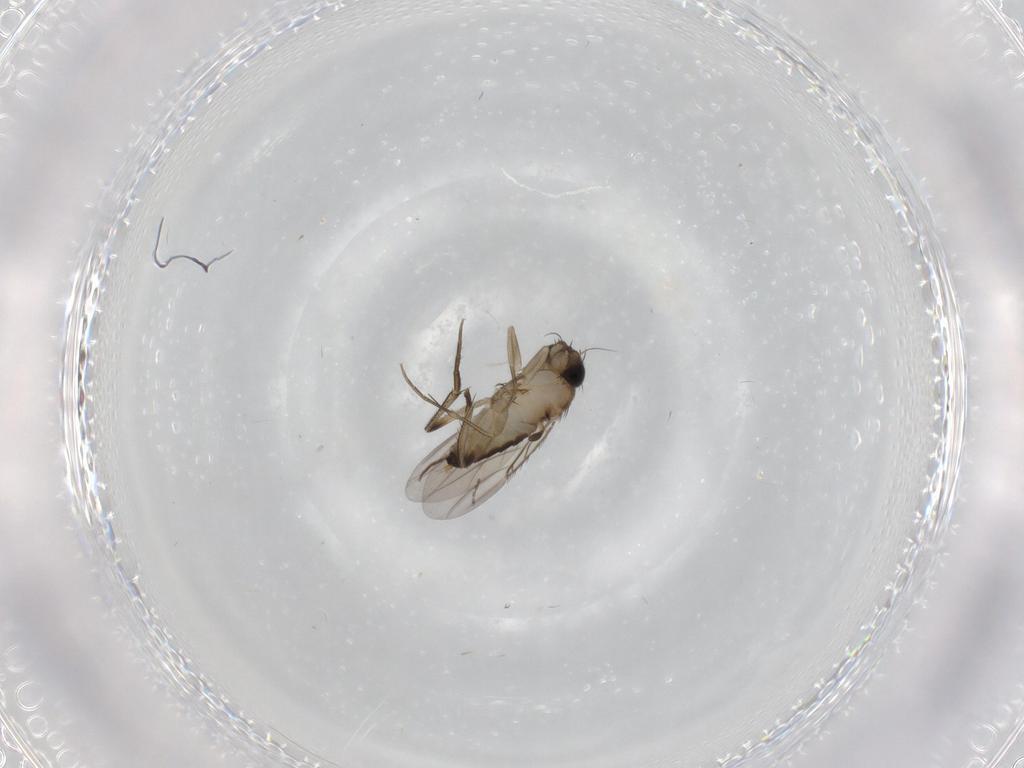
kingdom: Animalia
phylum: Arthropoda
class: Insecta
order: Diptera
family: Phoridae
